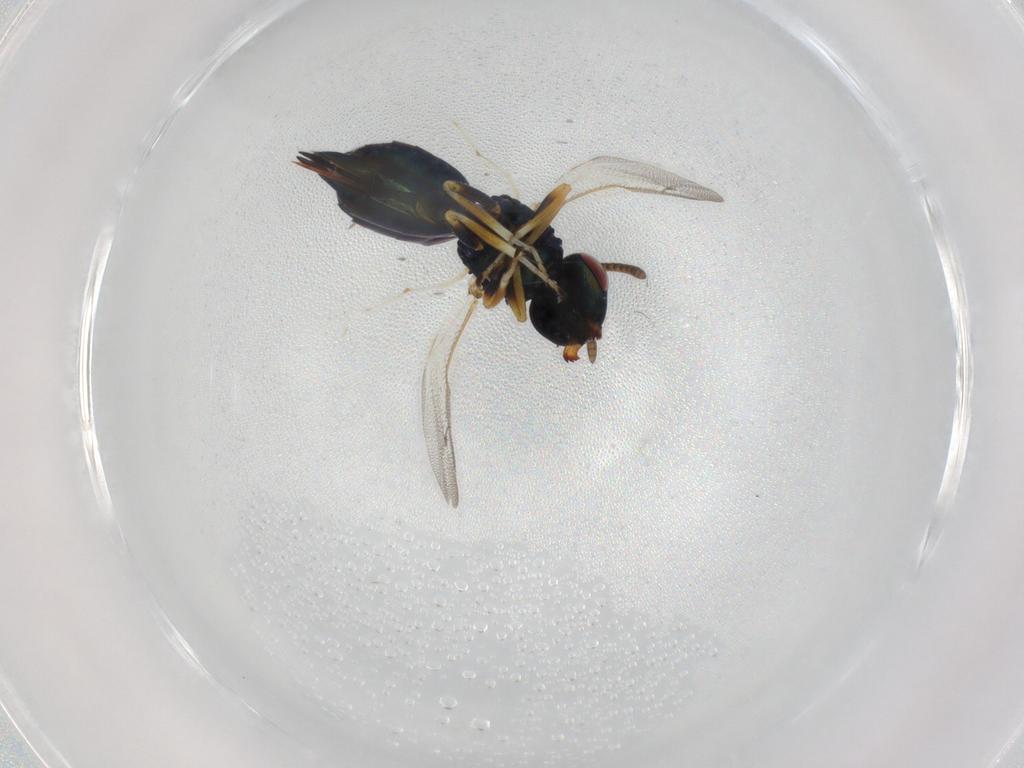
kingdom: Animalia
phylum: Arthropoda
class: Insecta
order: Hymenoptera
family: Pteromalidae
